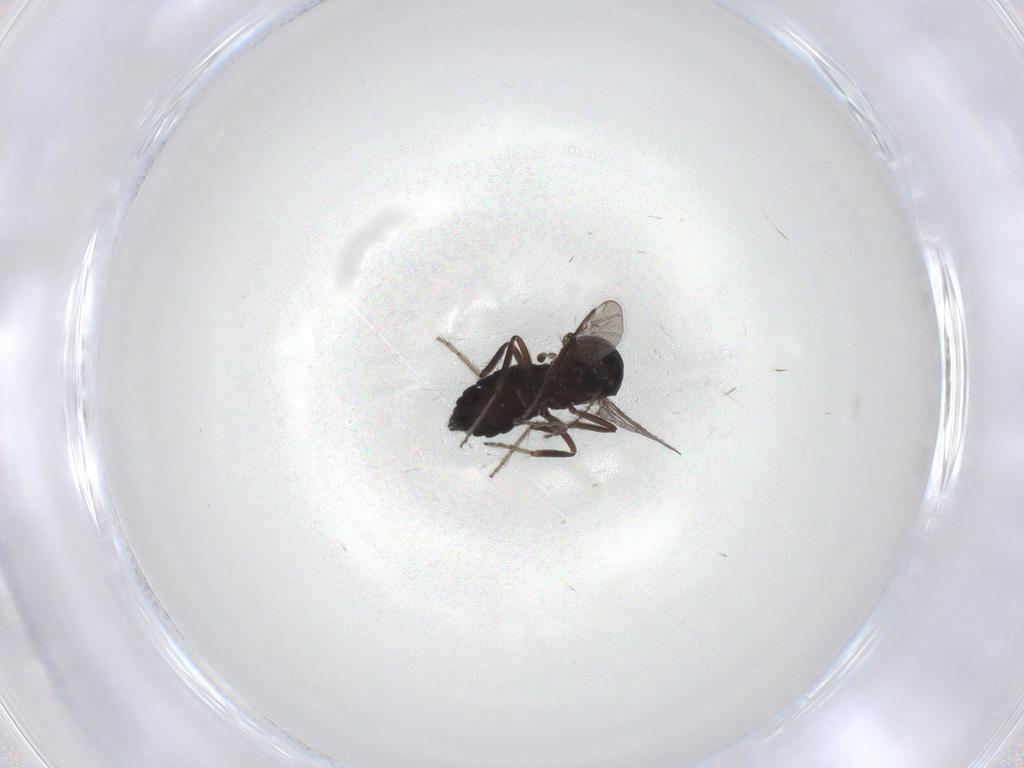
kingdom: Animalia
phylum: Arthropoda
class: Insecta
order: Diptera
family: Ceratopogonidae
